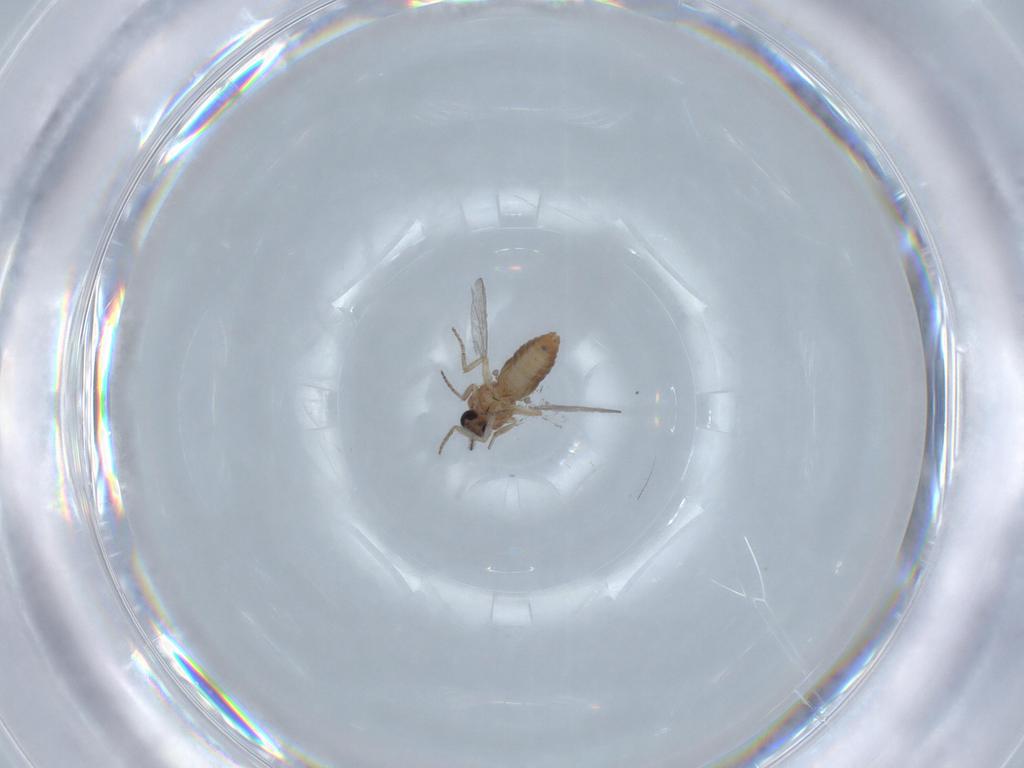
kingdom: Animalia
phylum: Arthropoda
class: Insecta
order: Diptera
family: Ceratopogonidae
